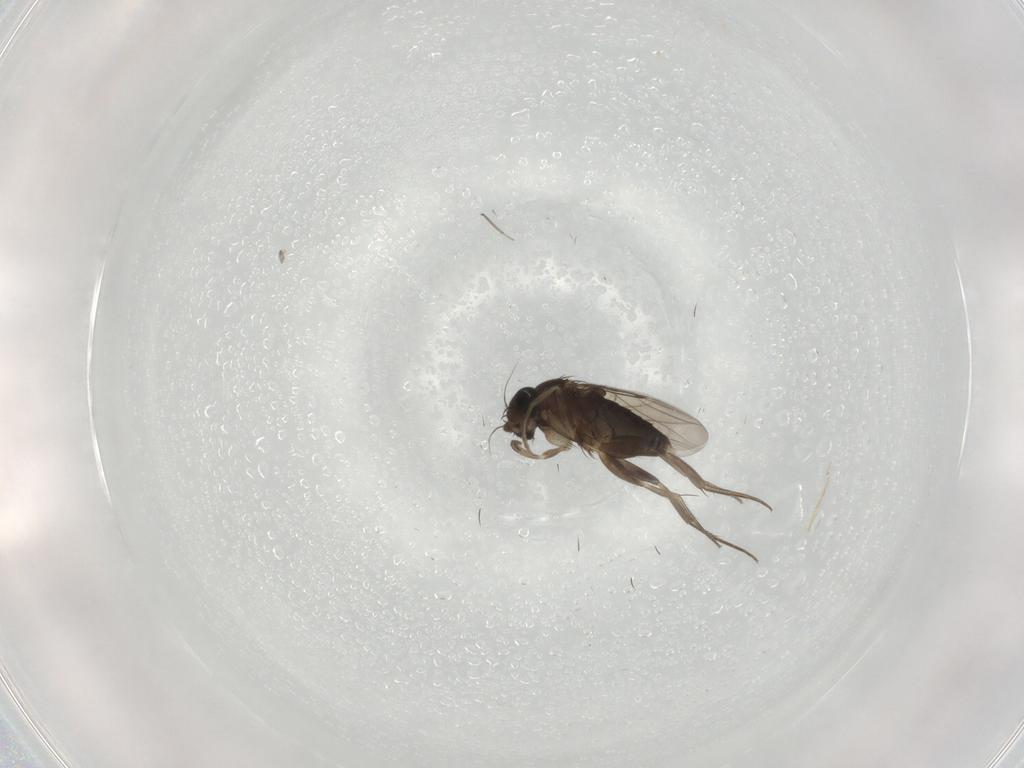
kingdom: Animalia
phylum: Arthropoda
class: Insecta
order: Diptera
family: Phoridae
